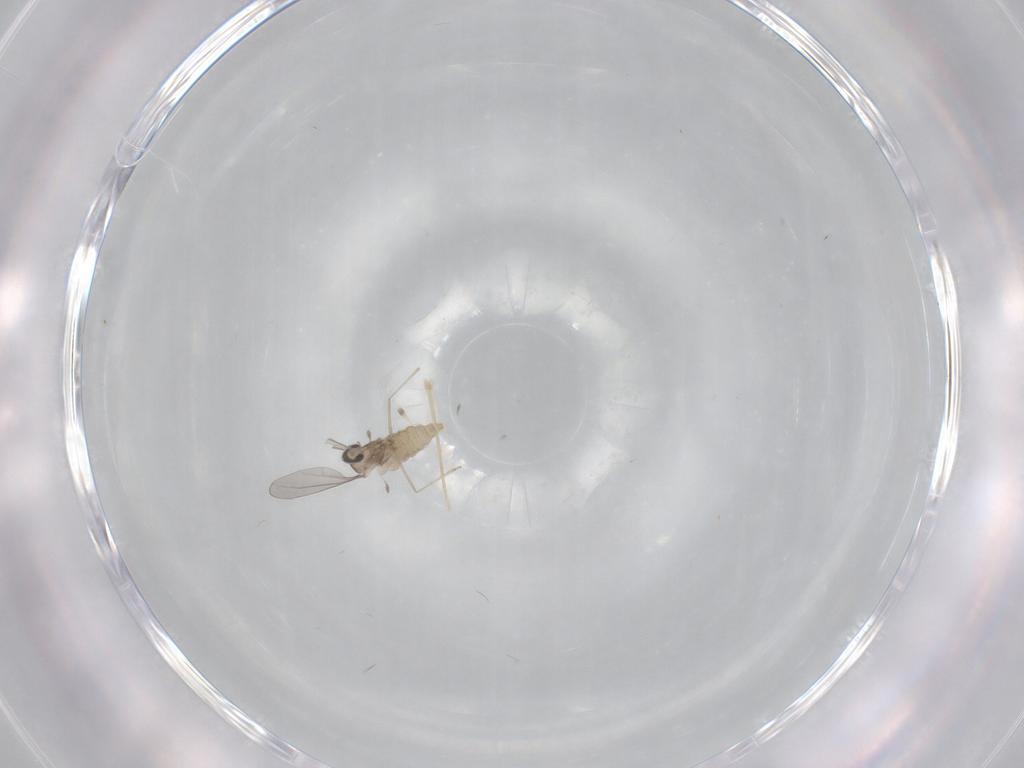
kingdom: Animalia
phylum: Arthropoda
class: Insecta
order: Diptera
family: Cecidomyiidae
